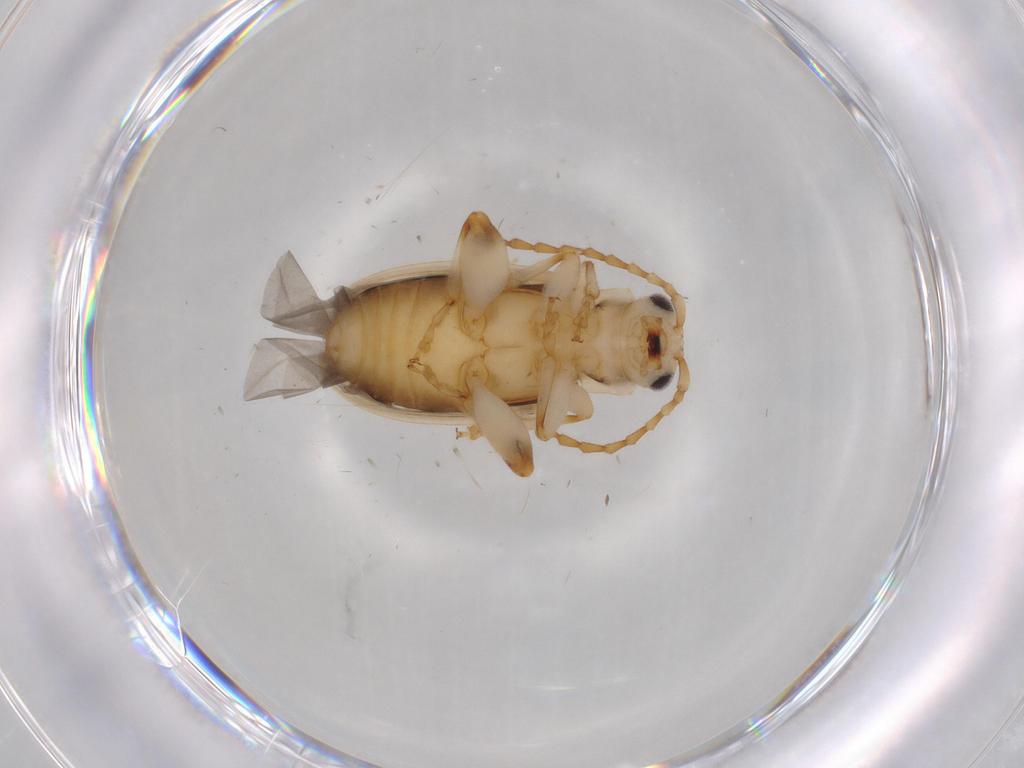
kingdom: Animalia
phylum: Arthropoda
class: Insecta
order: Coleoptera
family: Chrysomelidae
